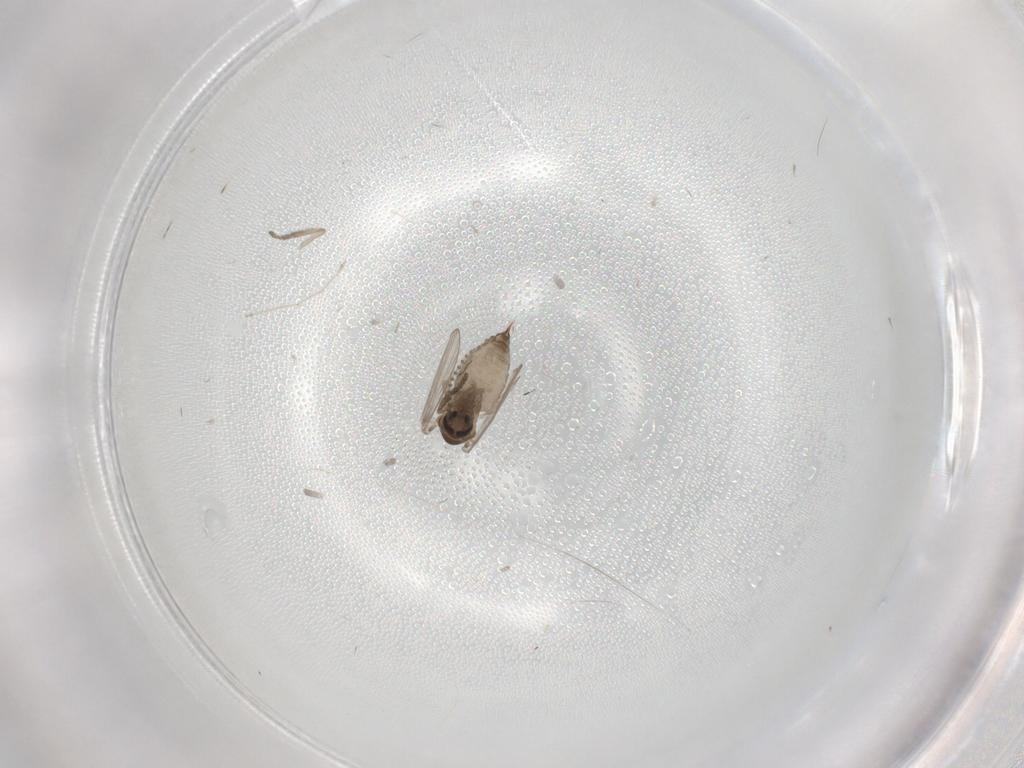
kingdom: Animalia
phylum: Arthropoda
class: Insecta
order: Diptera
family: Psychodidae
